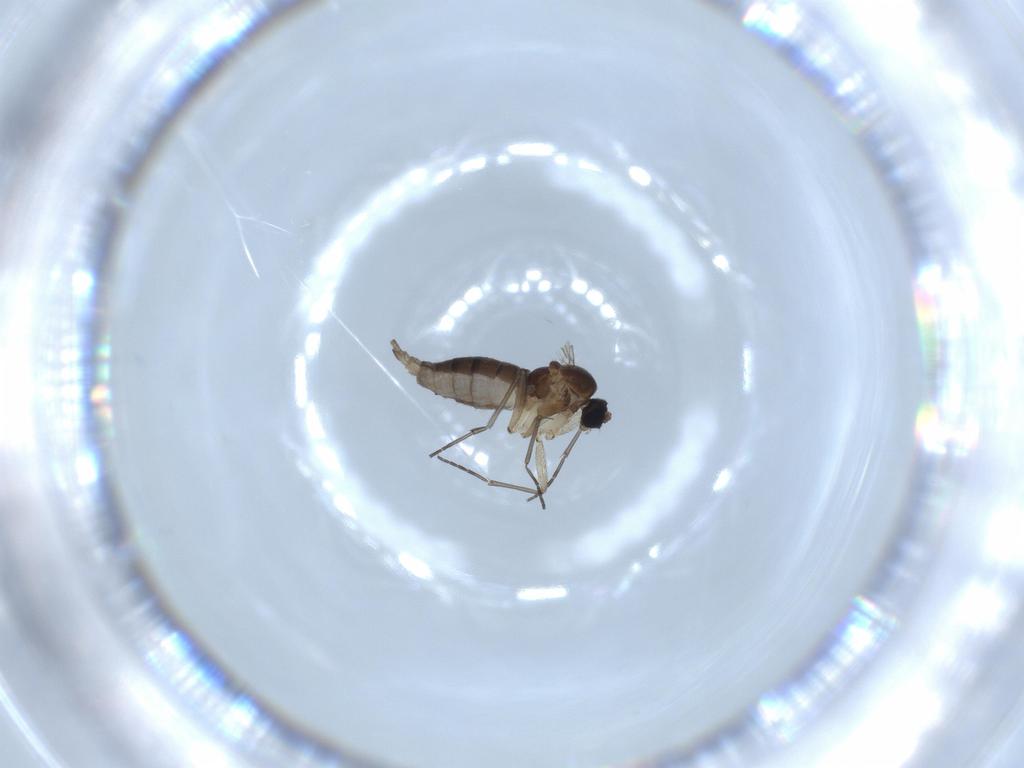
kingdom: Animalia
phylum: Arthropoda
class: Insecta
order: Diptera
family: Sciaridae
